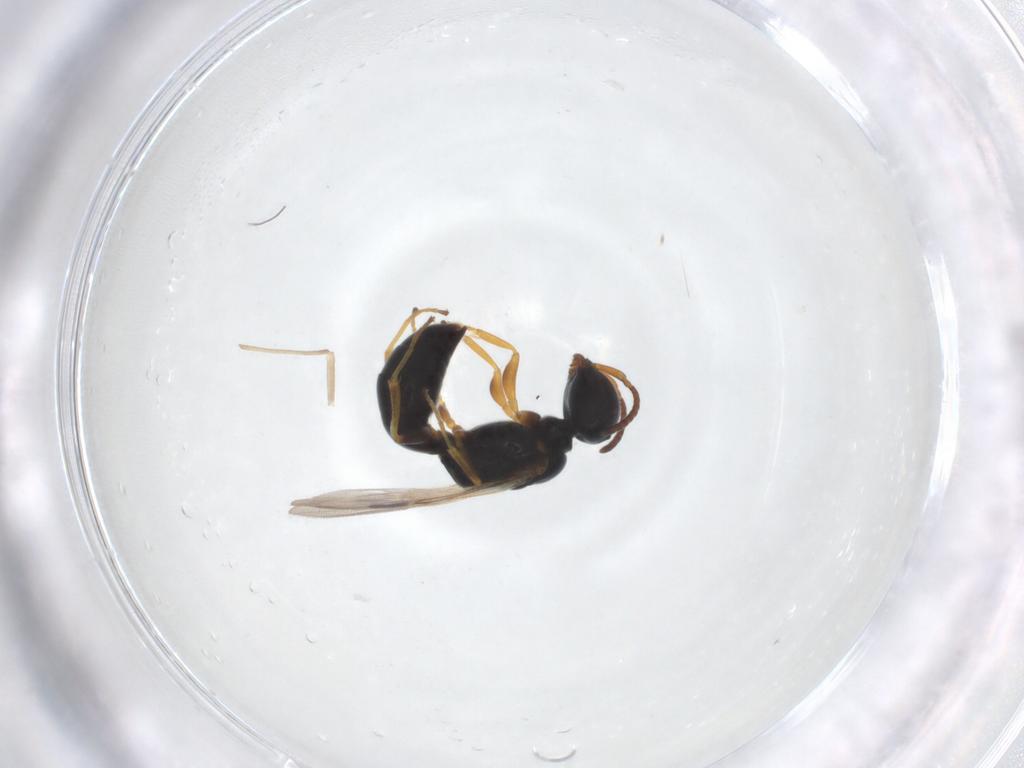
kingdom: Animalia
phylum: Arthropoda
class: Insecta
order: Hymenoptera
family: Pemphredonidae
